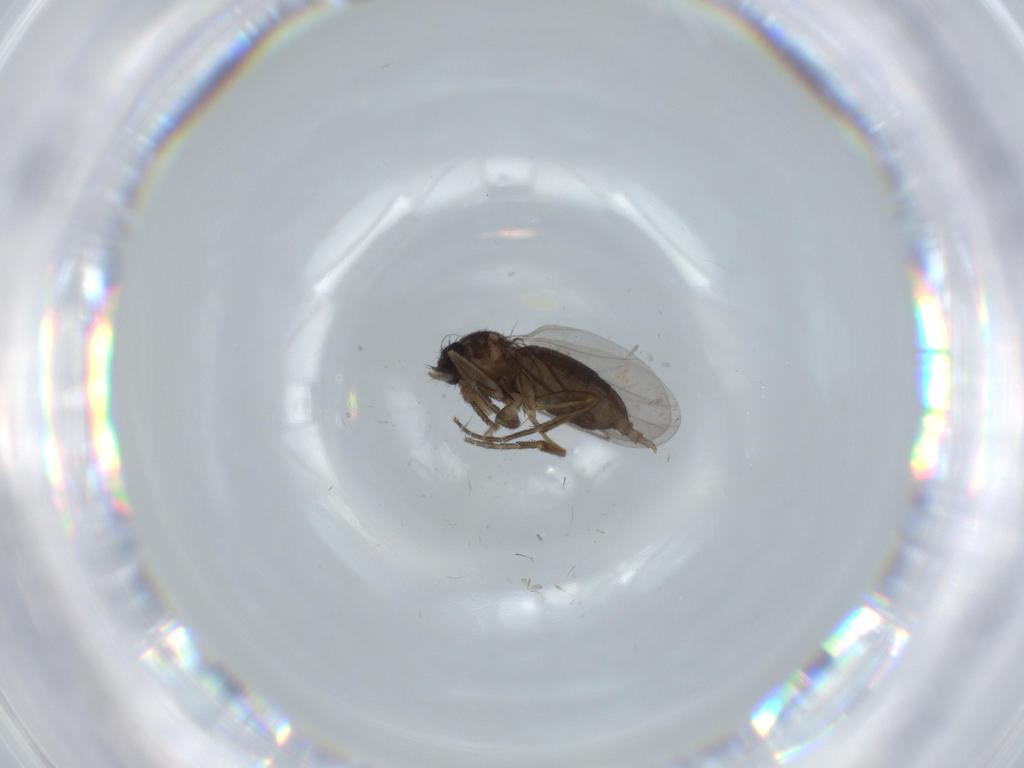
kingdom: Animalia
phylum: Arthropoda
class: Insecta
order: Diptera
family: Mycetophilidae
